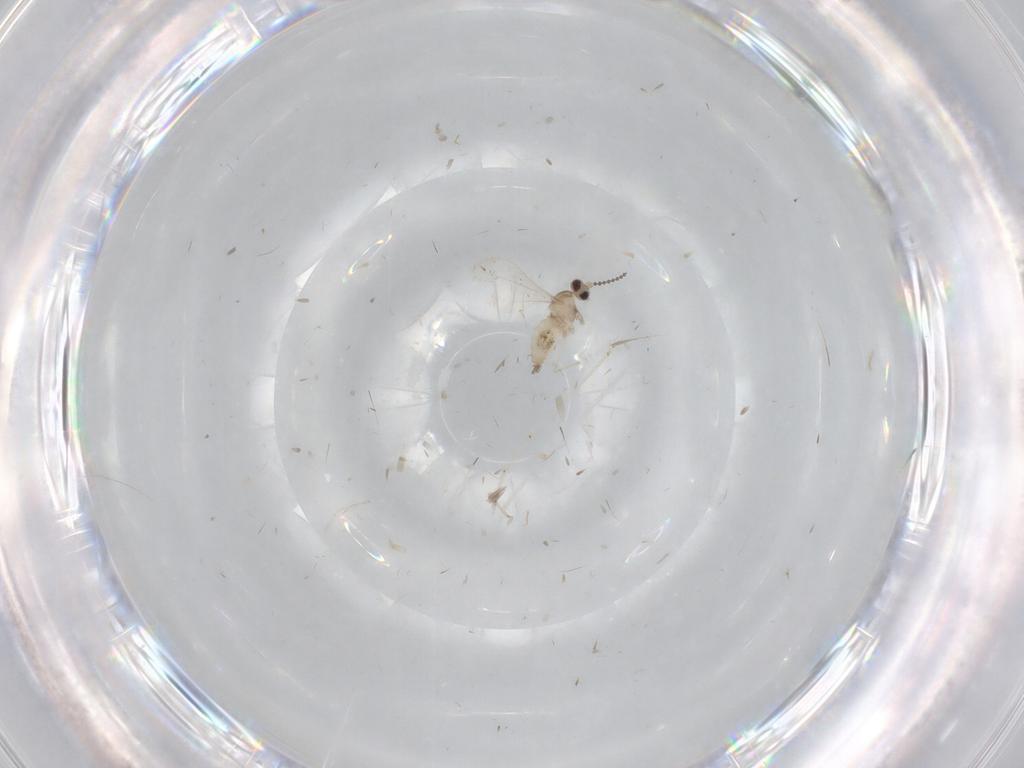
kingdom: Animalia
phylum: Arthropoda
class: Insecta
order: Diptera
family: Cecidomyiidae
